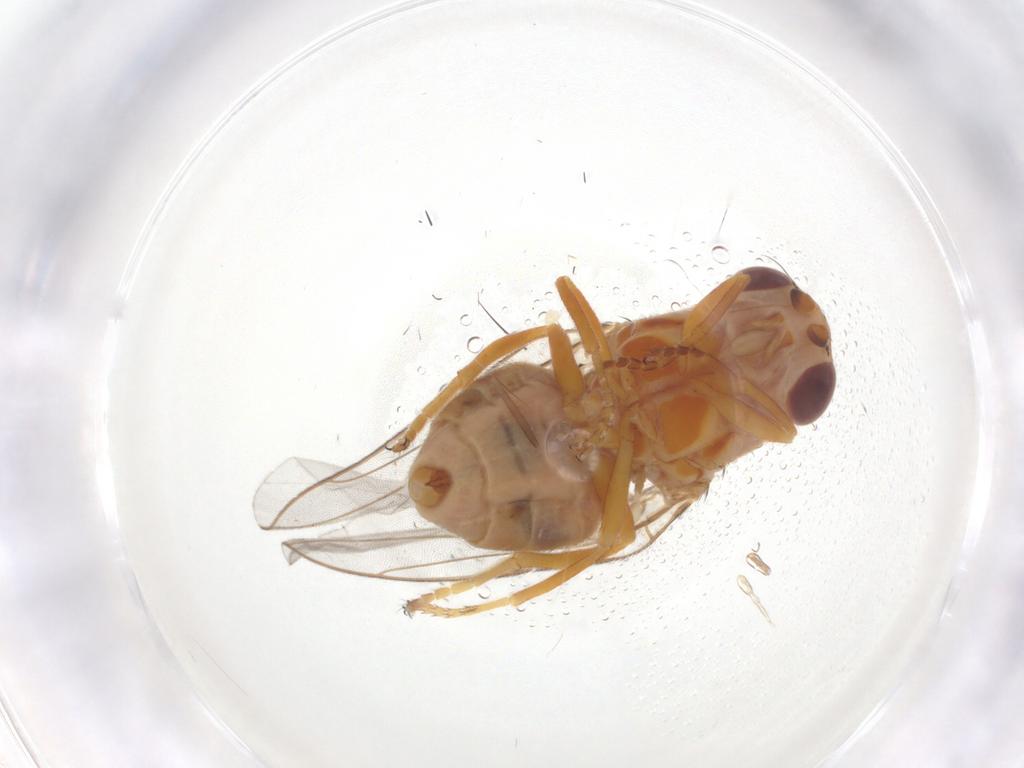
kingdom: Animalia
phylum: Arthropoda
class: Insecta
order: Diptera
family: Chloropidae
